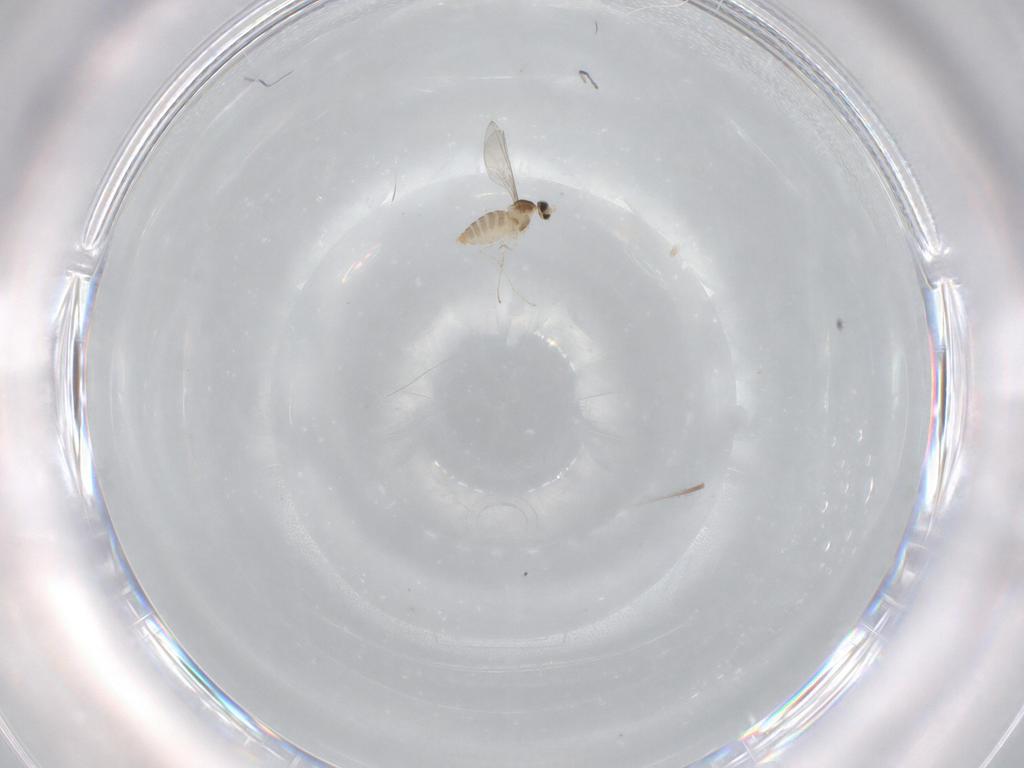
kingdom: Animalia
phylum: Arthropoda
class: Insecta
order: Diptera
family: Cecidomyiidae
